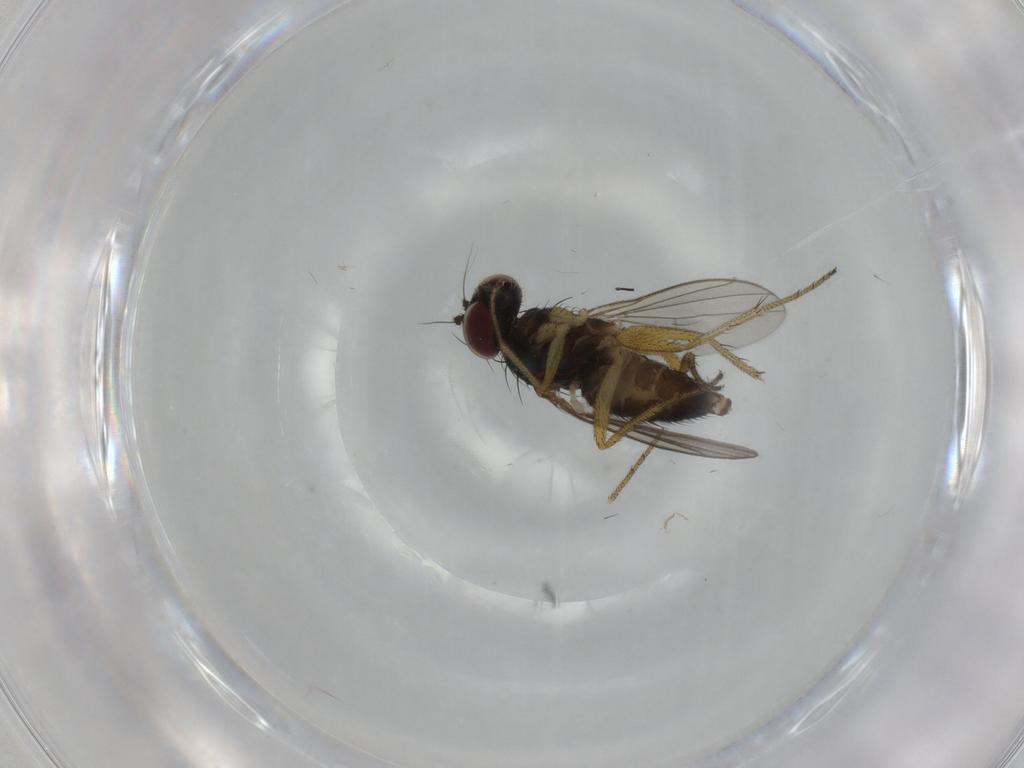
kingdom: Animalia
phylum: Arthropoda
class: Insecta
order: Diptera
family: Dolichopodidae
